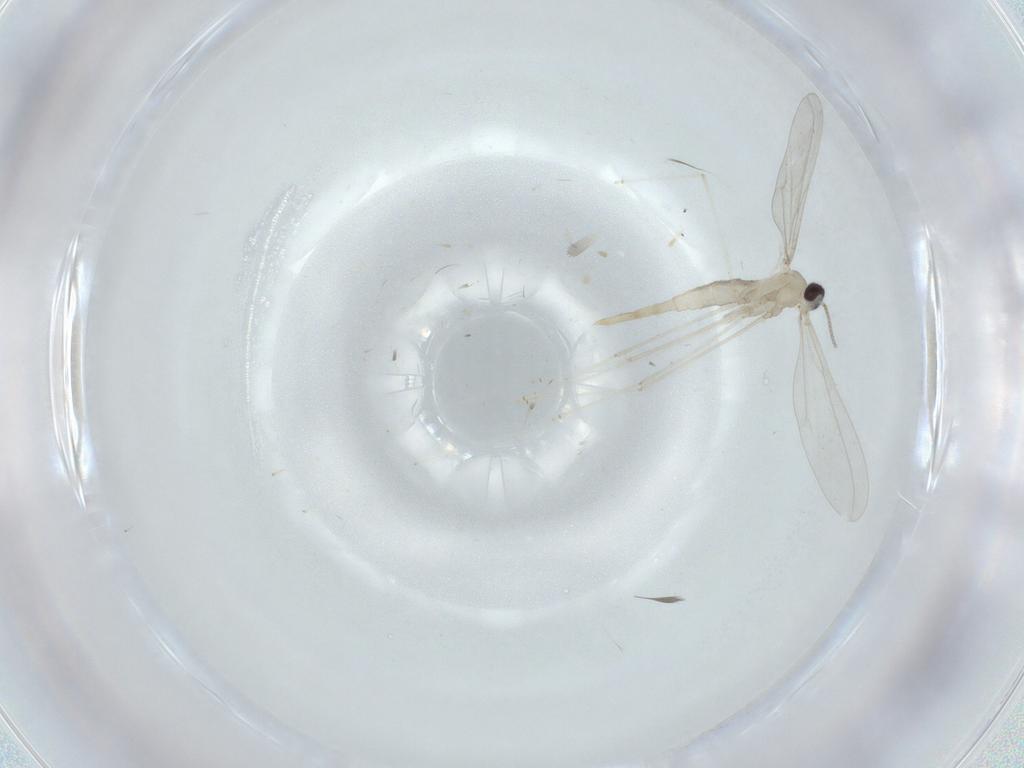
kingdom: Animalia
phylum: Arthropoda
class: Insecta
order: Diptera
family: Cecidomyiidae
